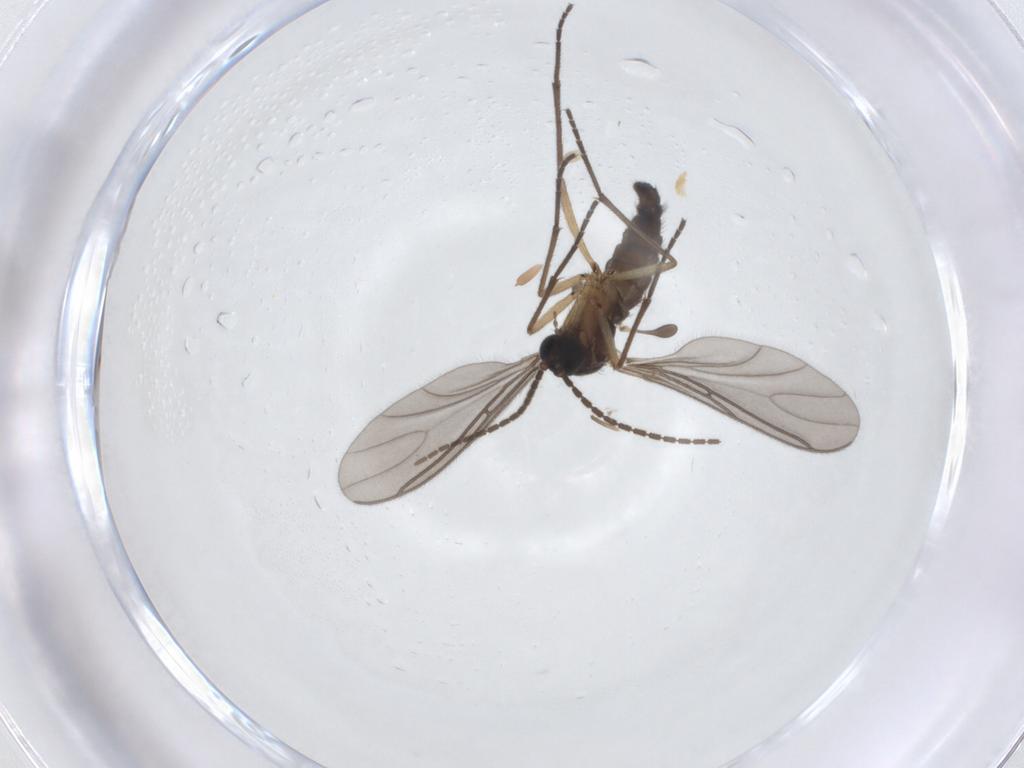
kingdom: Animalia
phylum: Arthropoda
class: Insecta
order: Diptera
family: Sciaridae
